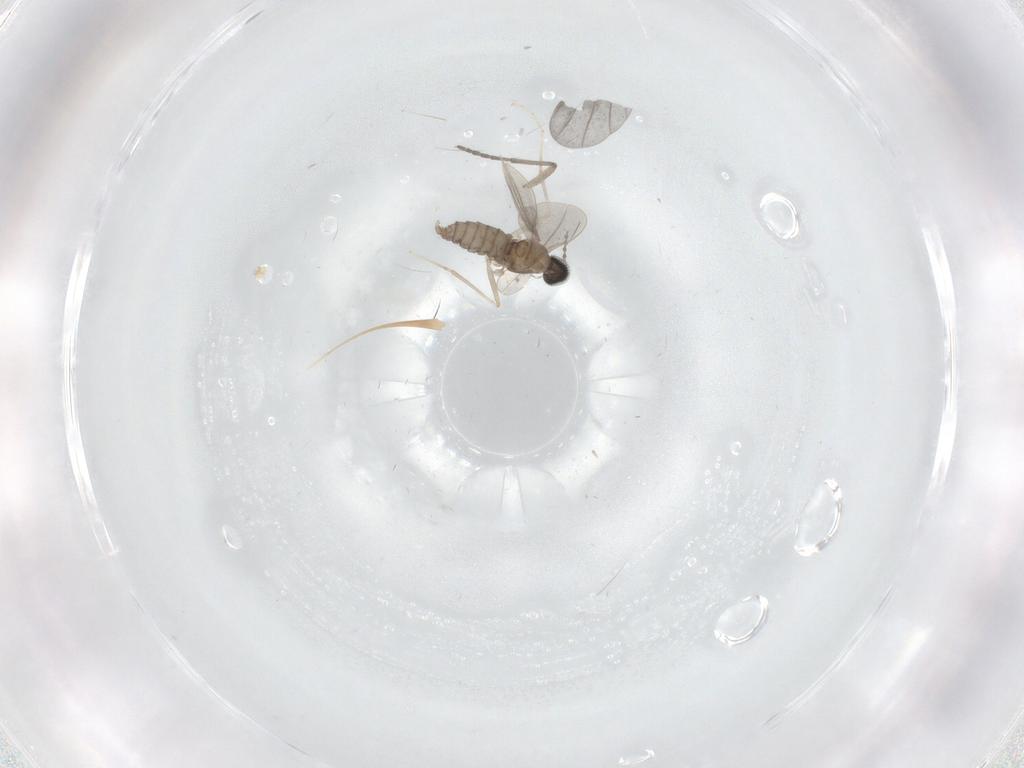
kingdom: Animalia
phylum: Arthropoda
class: Insecta
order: Diptera
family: Cecidomyiidae
